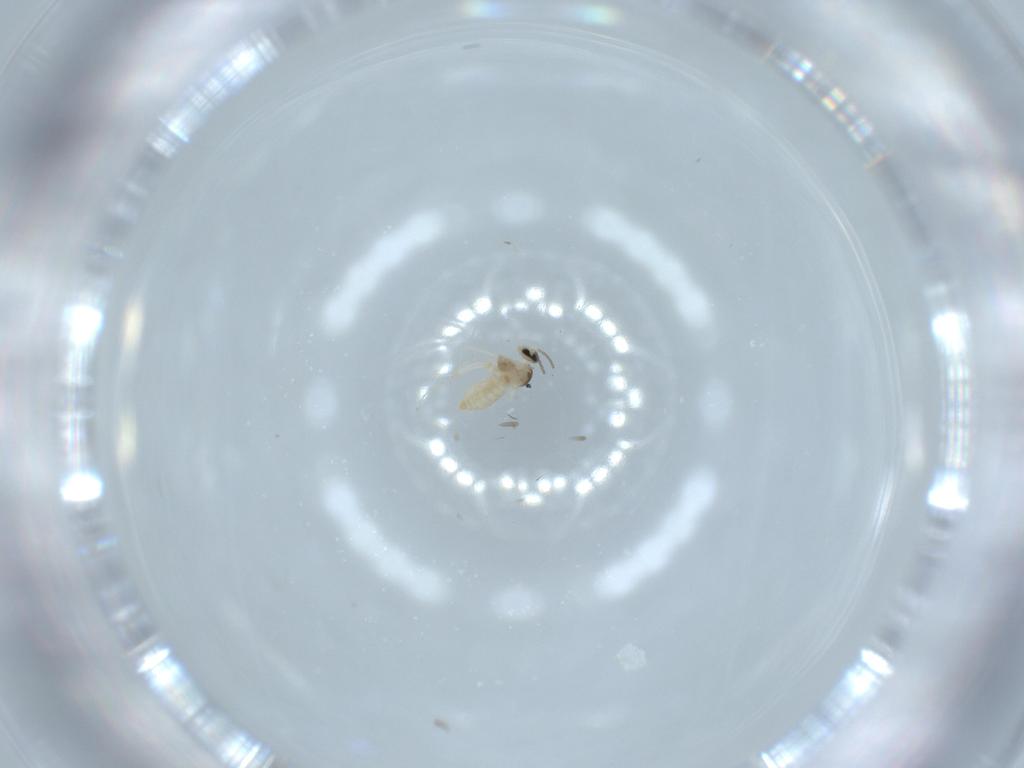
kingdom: Animalia
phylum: Arthropoda
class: Insecta
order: Diptera
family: Cecidomyiidae
